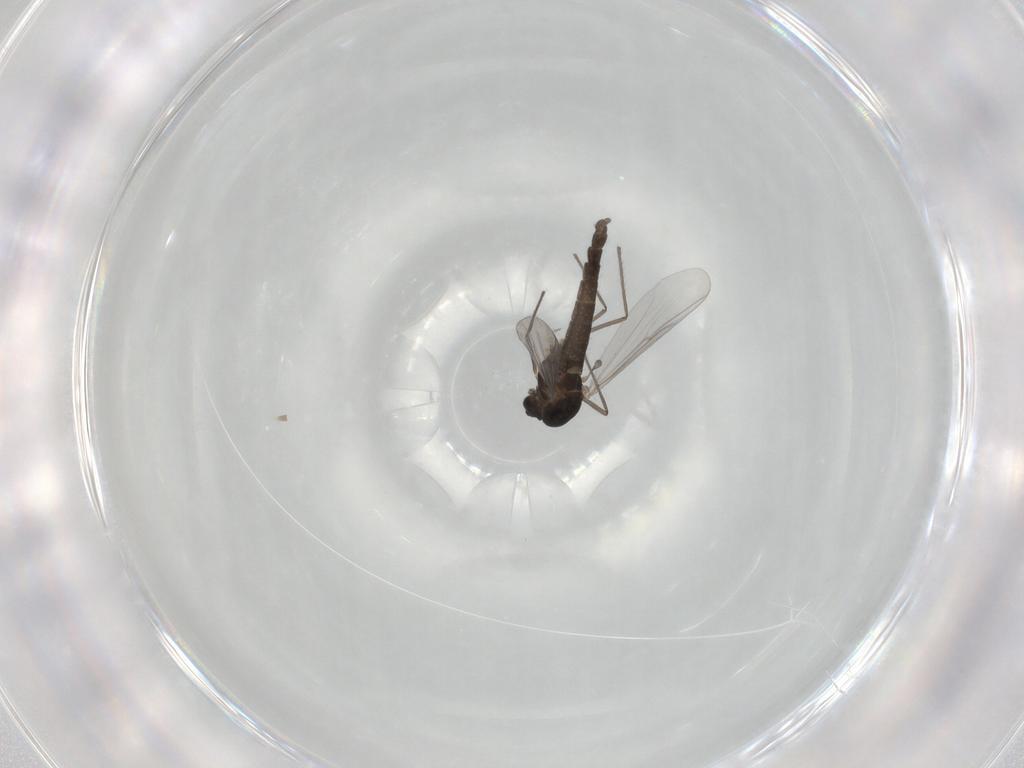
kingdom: Animalia
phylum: Arthropoda
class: Insecta
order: Diptera
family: Chironomidae
